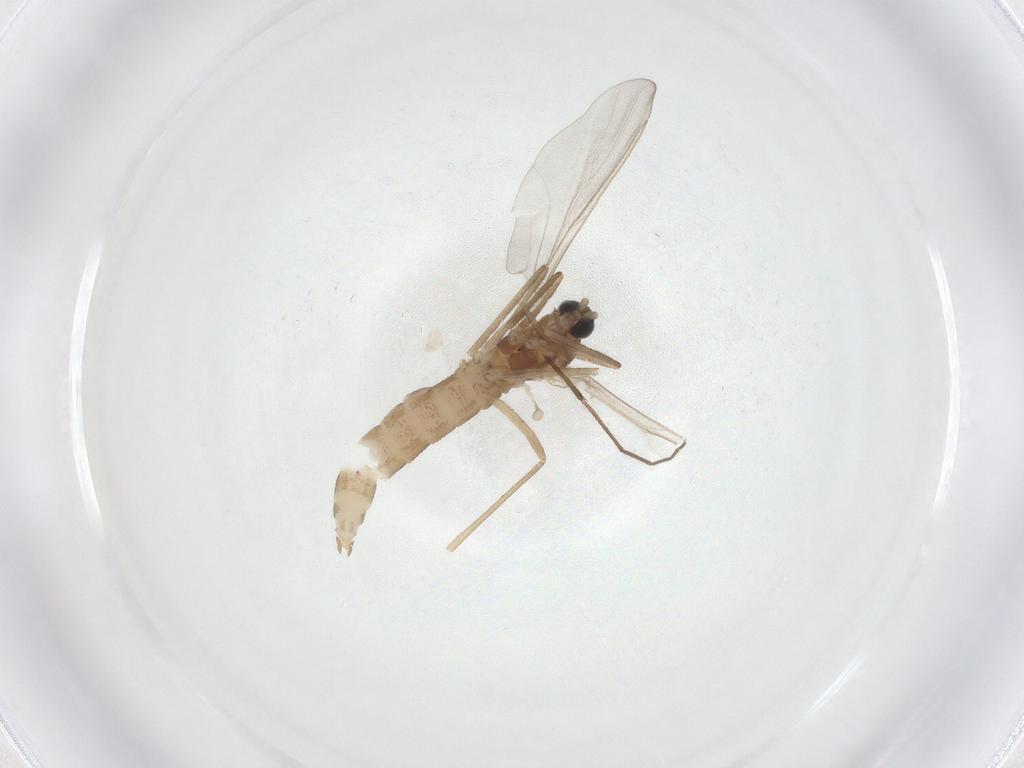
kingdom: Animalia
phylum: Arthropoda
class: Insecta
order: Diptera
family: Cecidomyiidae
